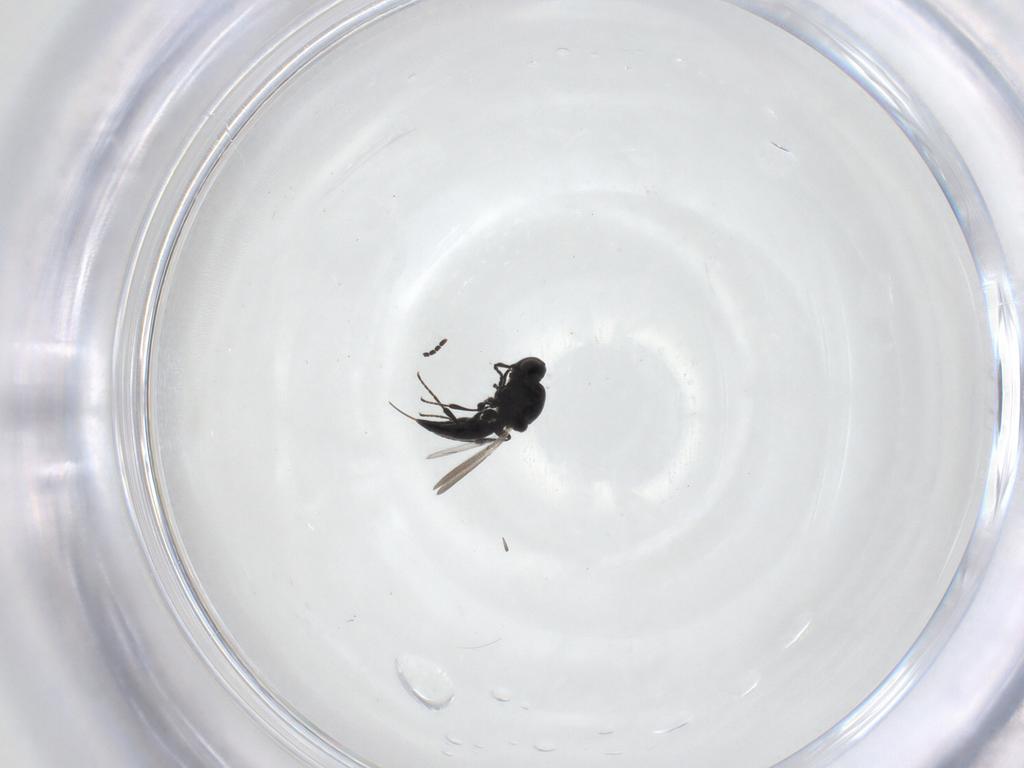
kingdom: Animalia
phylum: Arthropoda
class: Insecta
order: Hymenoptera
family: Platygastridae
